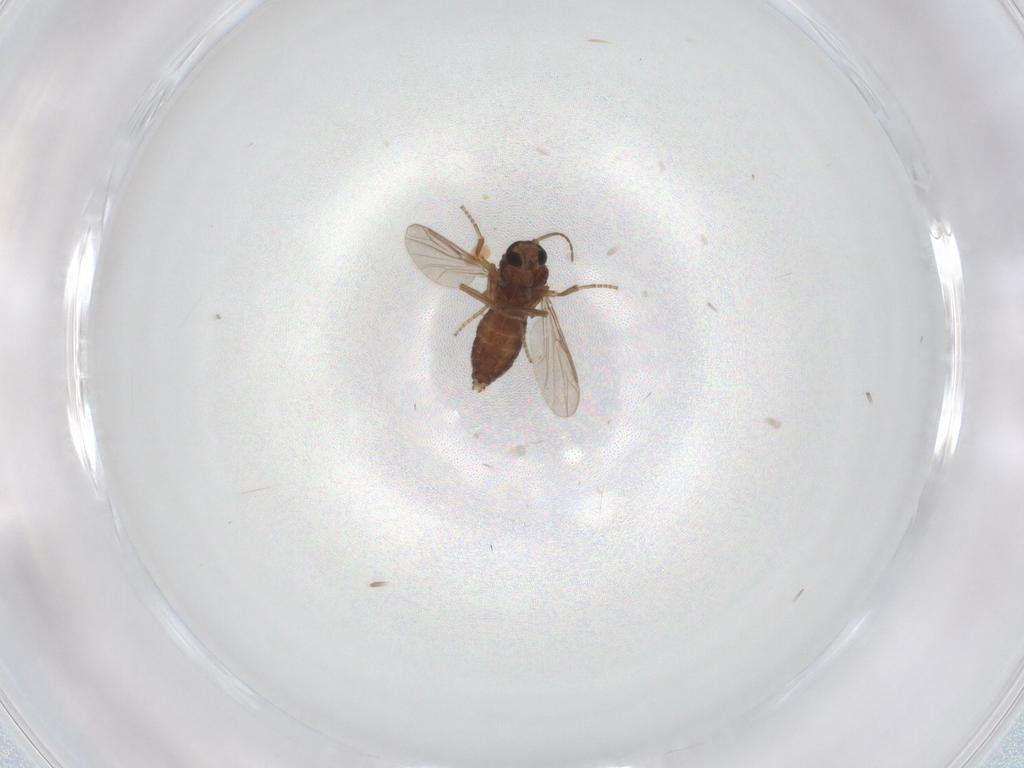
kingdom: Animalia
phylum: Arthropoda
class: Insecta
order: Diptera
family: Ceratopogonidae
